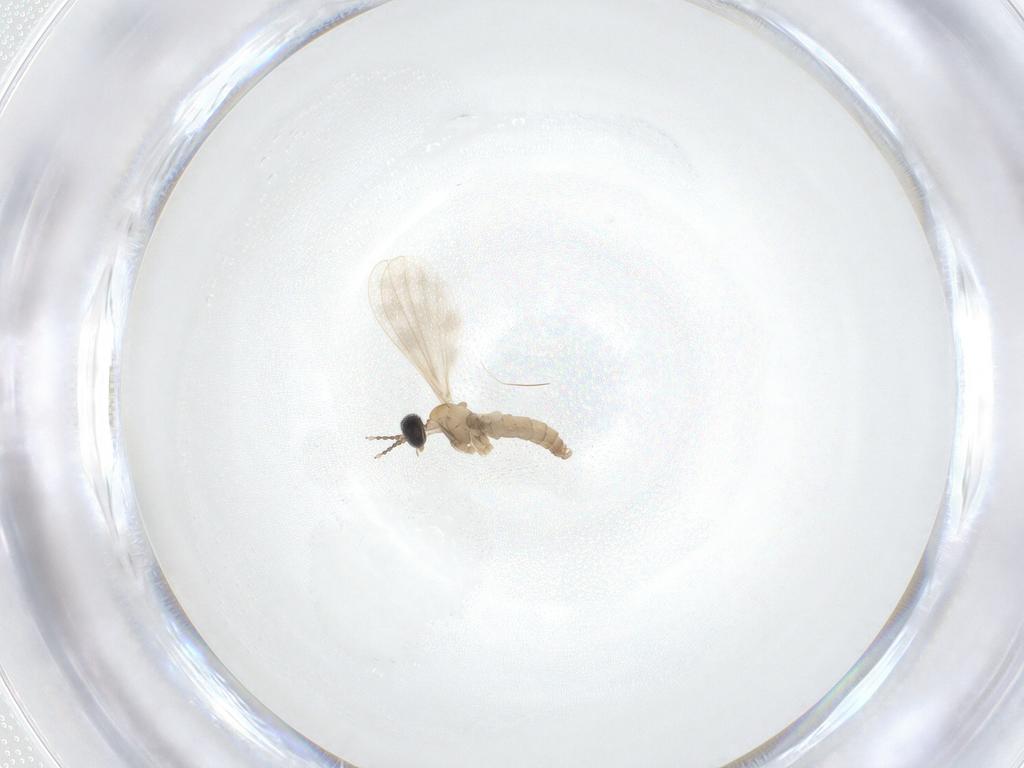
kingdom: Animalia
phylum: Arthropoda
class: Insecta
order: Diptera
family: Cecidomyiidae
